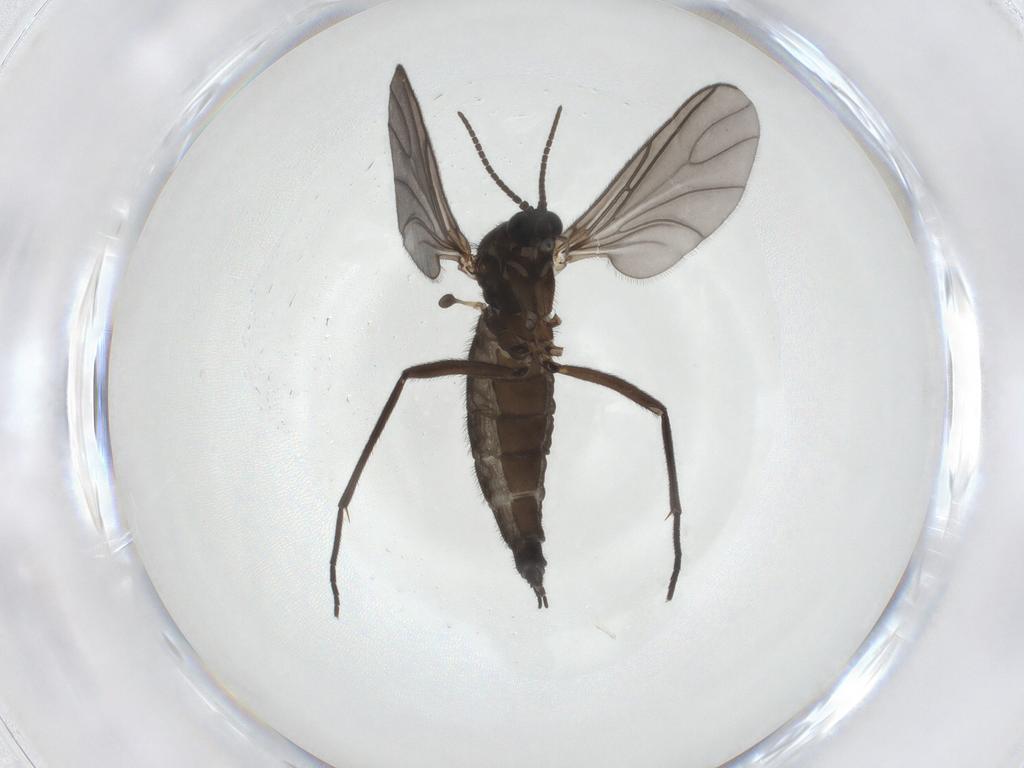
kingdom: Animalia
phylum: Arthropoda
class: Insecta
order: Diptera
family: Sciaridae
